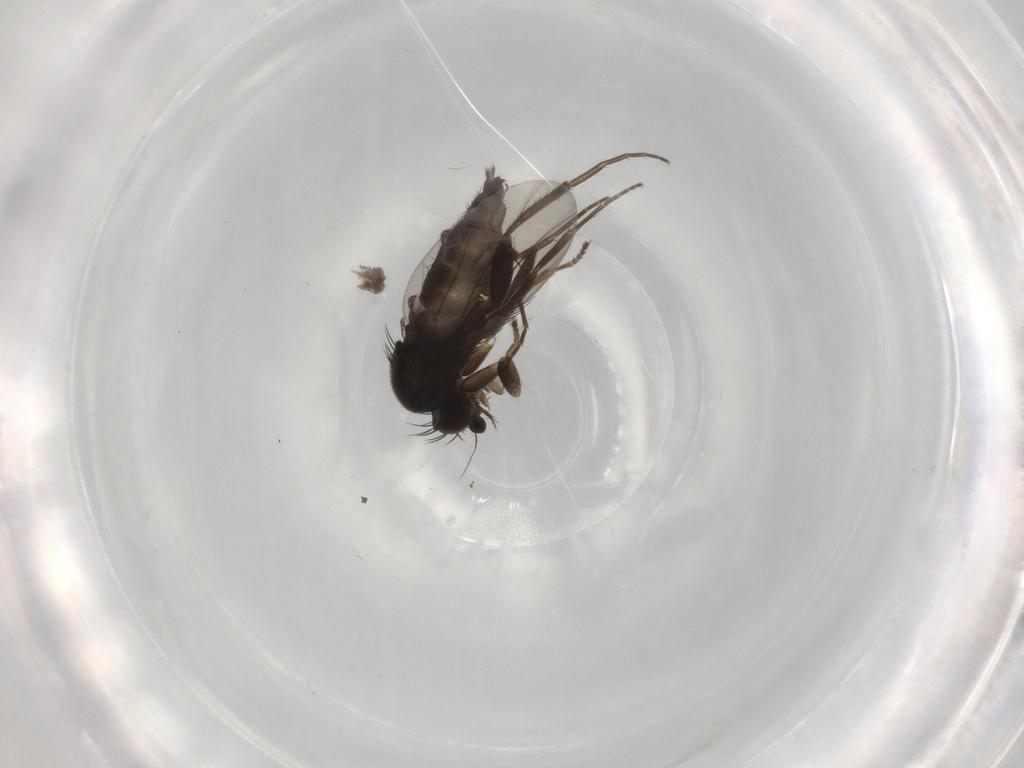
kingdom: Animalia
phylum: Arthropoda
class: Insecta
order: Diptera
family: Phoridae
